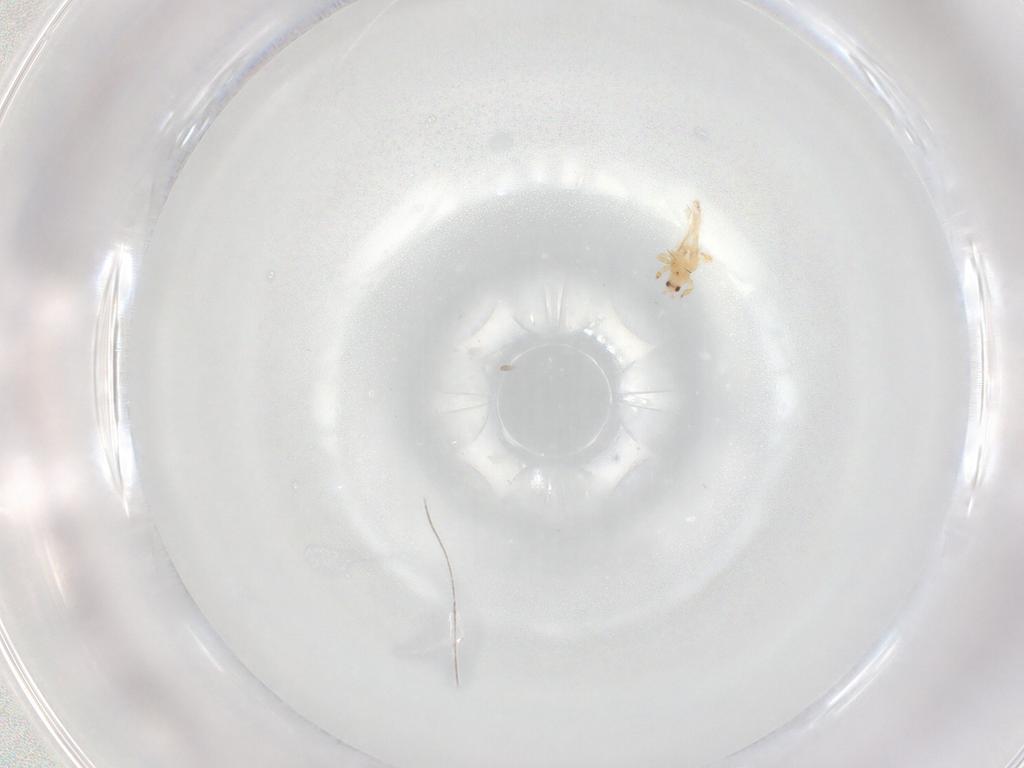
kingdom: Animalia
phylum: Arthropoda
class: Insecta
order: Thysanoptera
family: Thripidae
